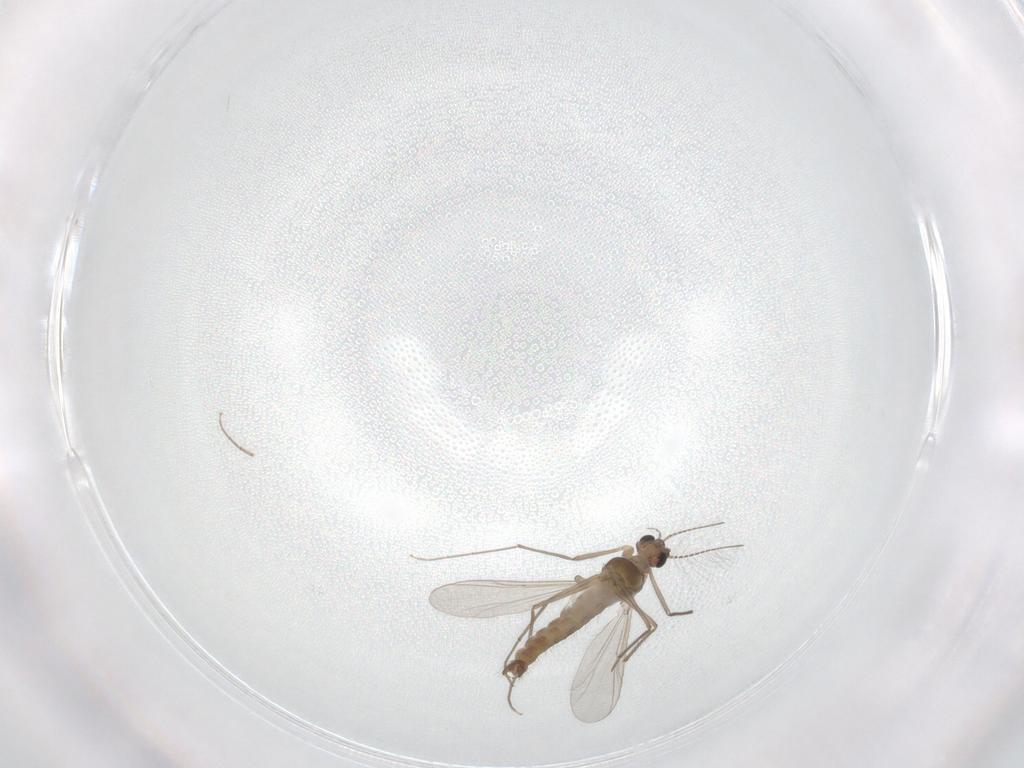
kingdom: Animalia
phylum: Arthropoda
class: Insecta
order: Diptera
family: Chironomidae
